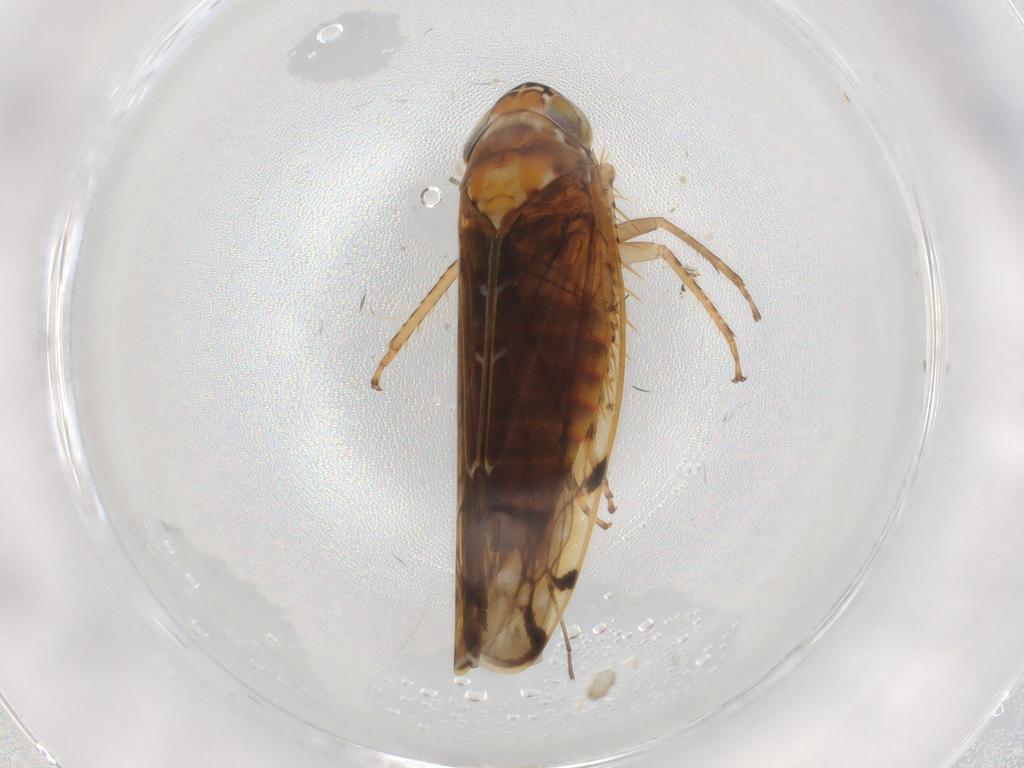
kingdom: Animalia
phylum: Arthropoda
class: Insecta
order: Hemiptera
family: Cicadellidae
